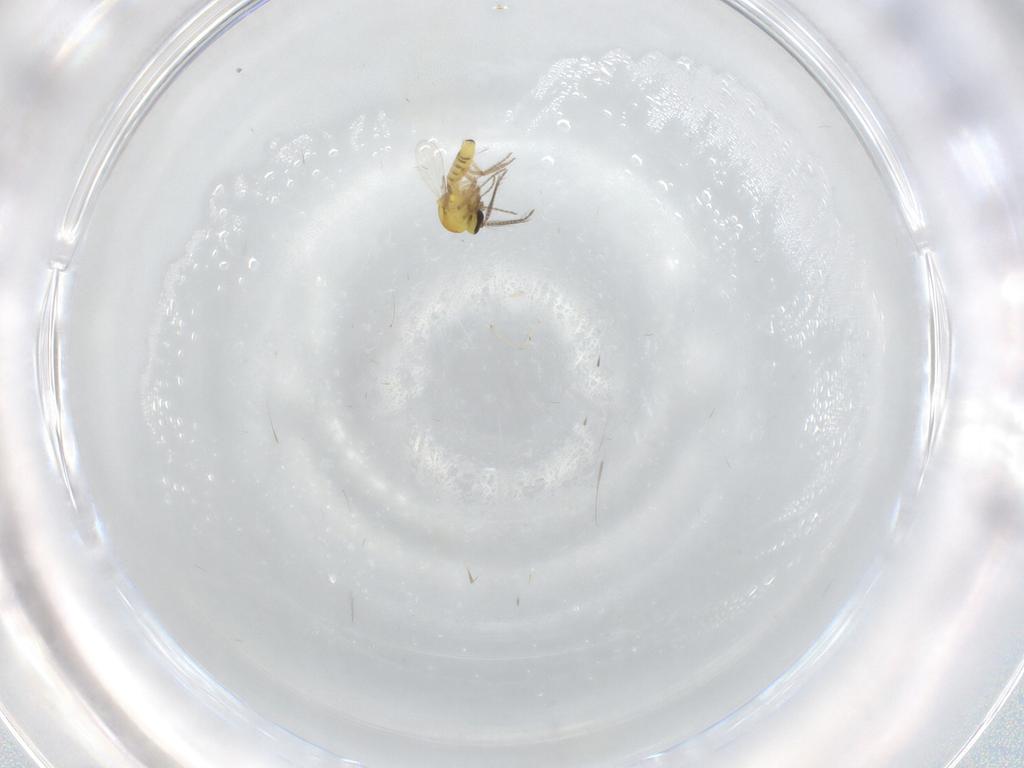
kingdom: Animalia
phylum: Arthropoda
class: Insecta
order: Diptera
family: Ceratopogonidae
